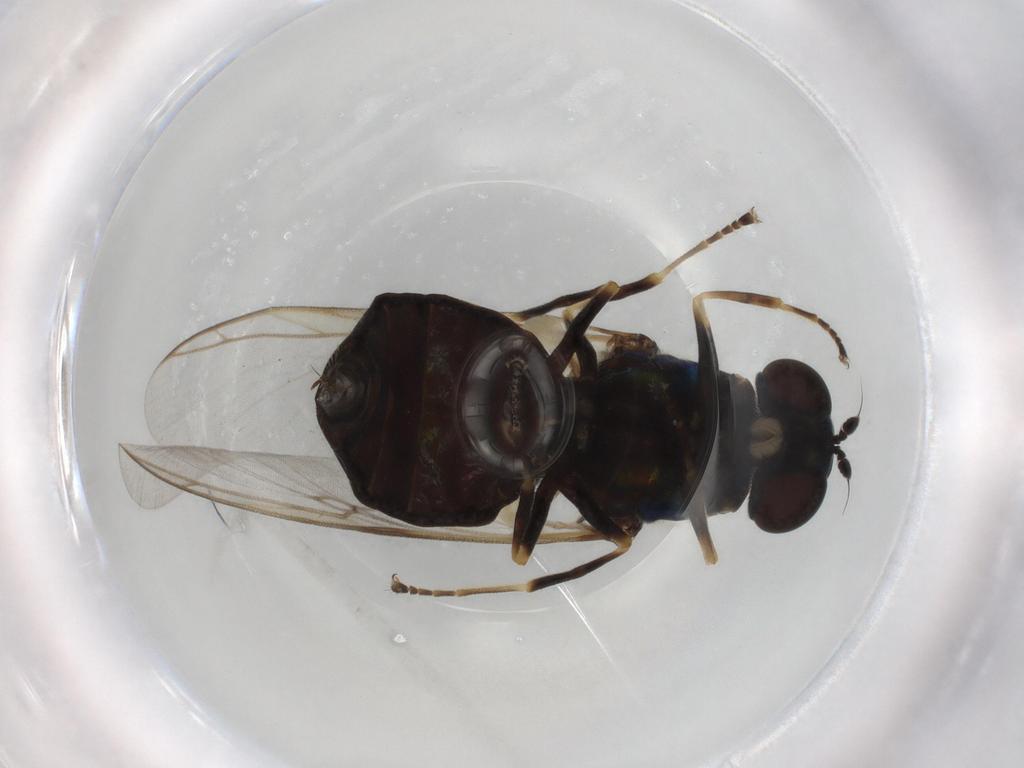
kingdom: Animalia
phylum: Arthropoda
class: Insecta
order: Diptera
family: Stratiomyidae
